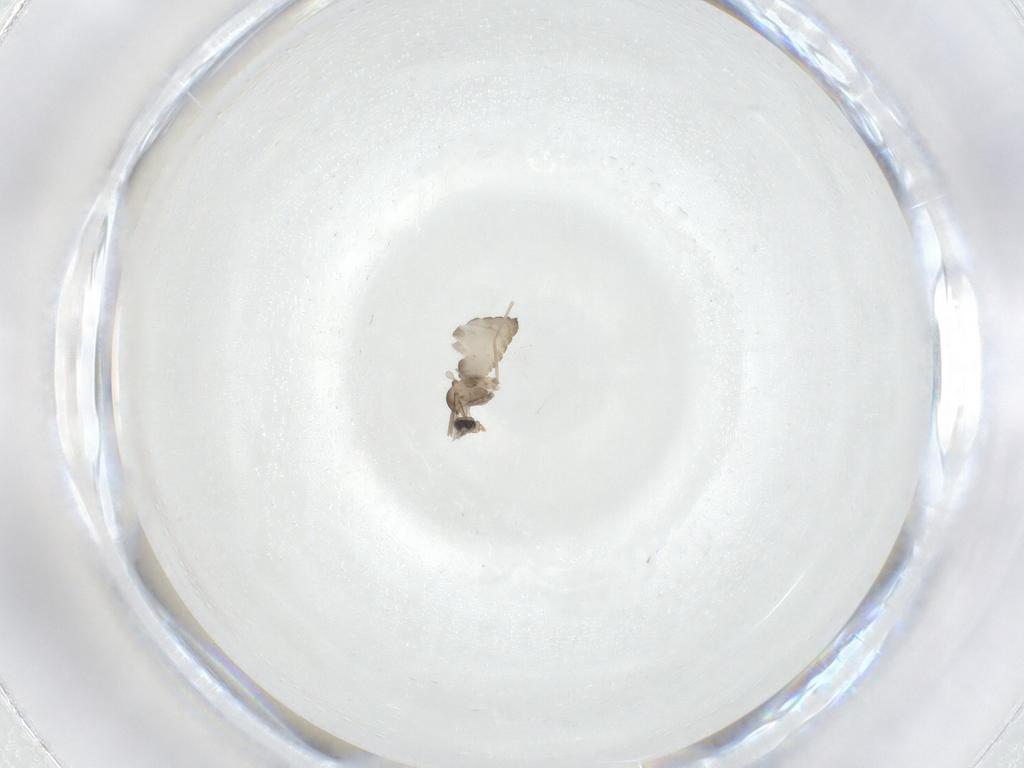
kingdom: Animalia
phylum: Arthropoda
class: Insecta
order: Diptera
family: Cecidomyiidae
